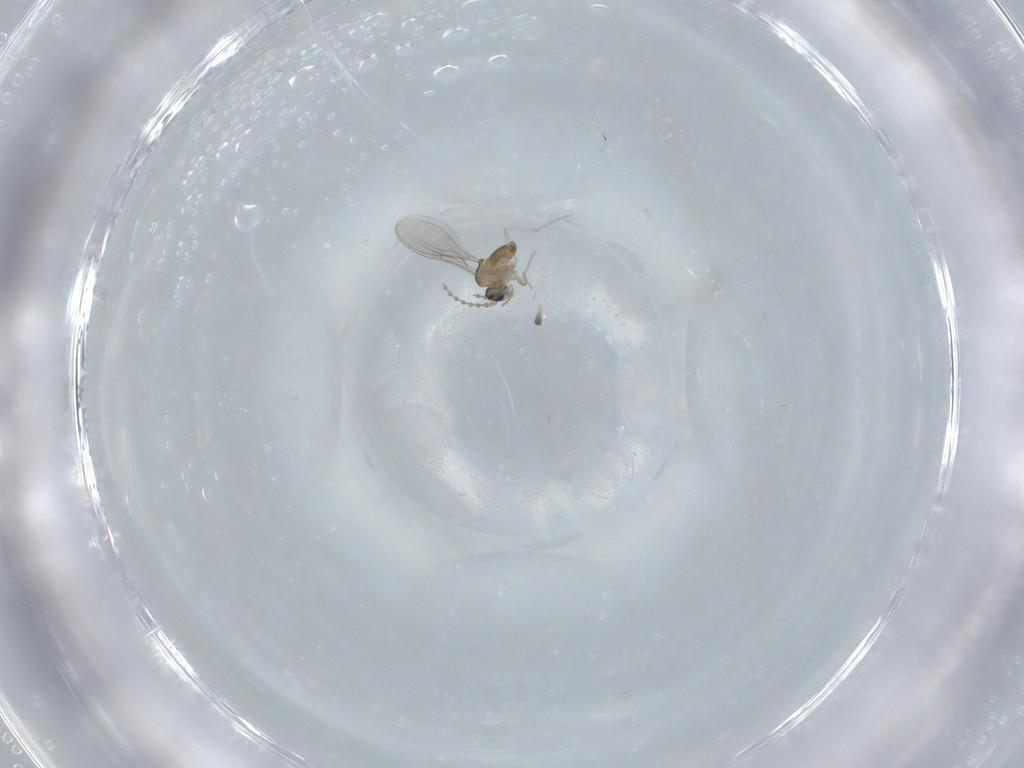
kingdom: Animalia
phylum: Arthropoda
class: Insecta
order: Diptera
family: Cecidomyiidae
